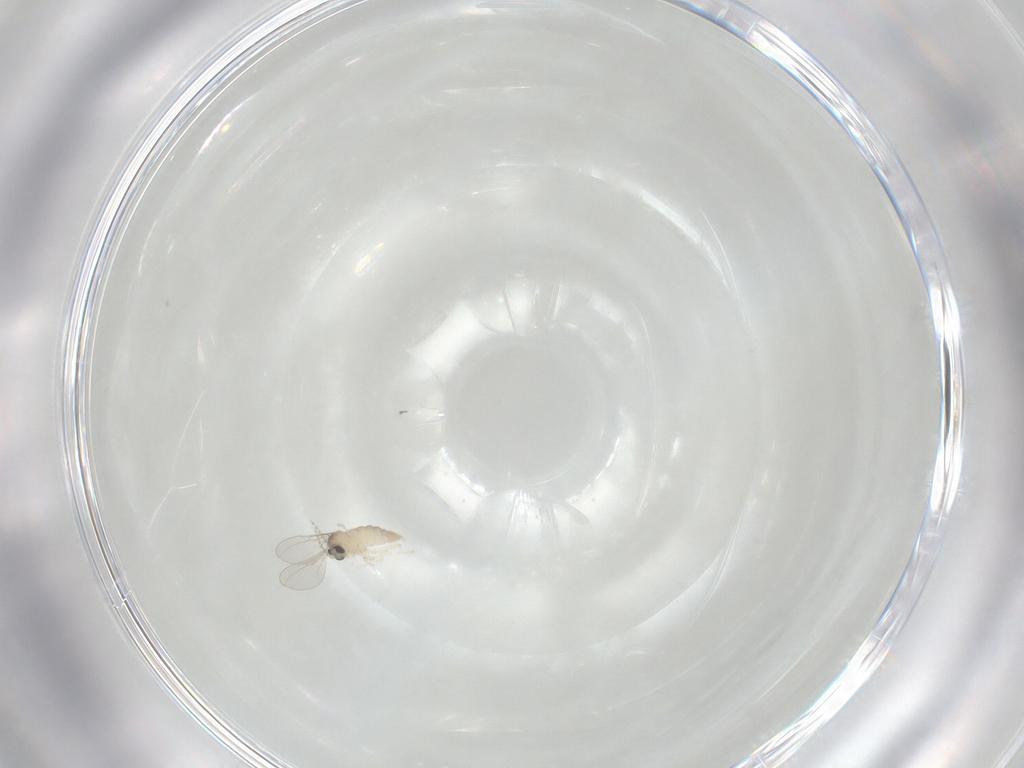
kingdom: Animalia
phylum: Arthropoda
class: Insecta
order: Diptera
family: Cecidomyiidae
